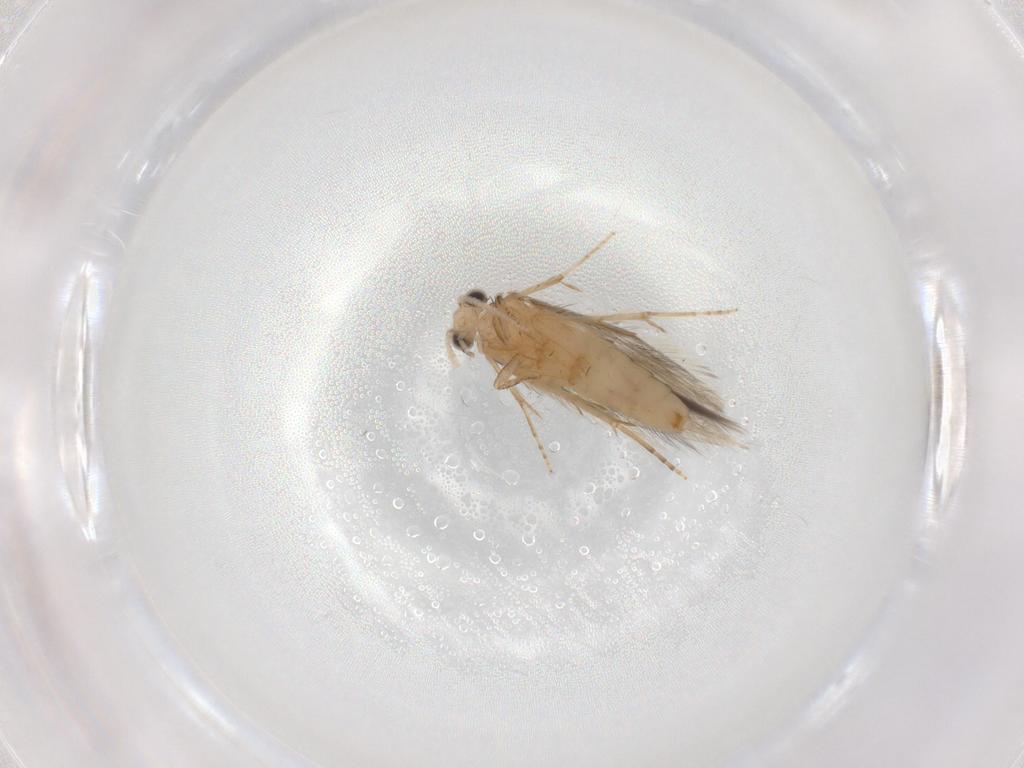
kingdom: Animalia
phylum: Arthropoda
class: Insecta
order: Trichoptera
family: Hydroptilidae
